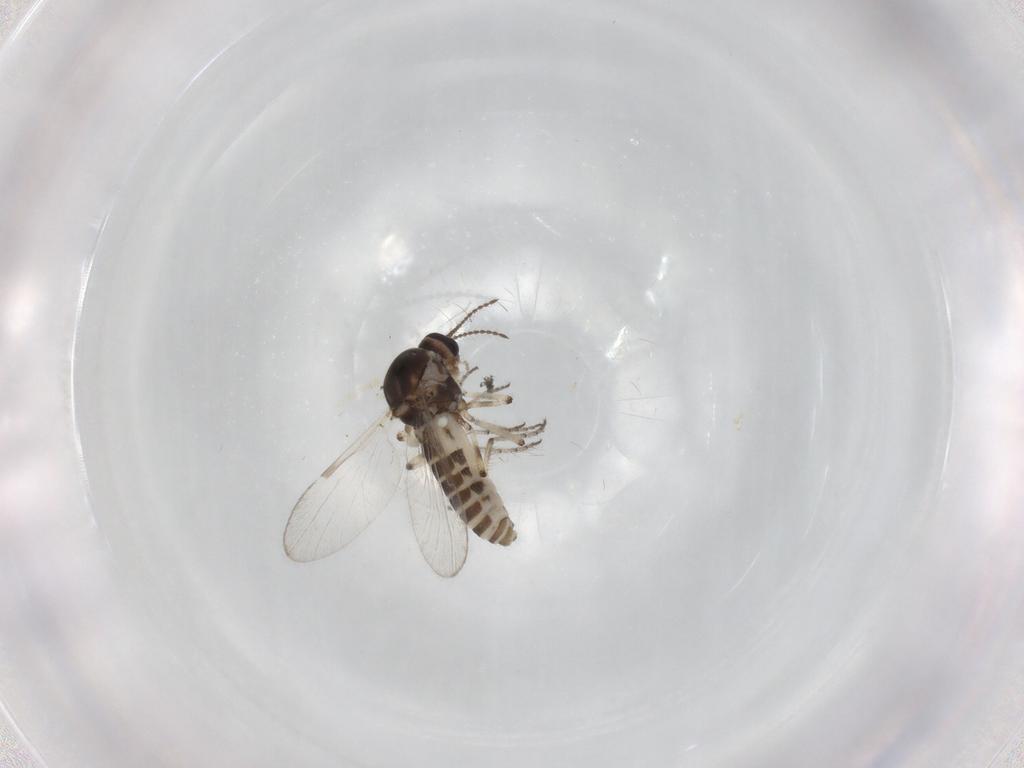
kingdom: Animalia
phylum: Arthropoda
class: Insecta
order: Diptera
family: Ceratopogonidae
